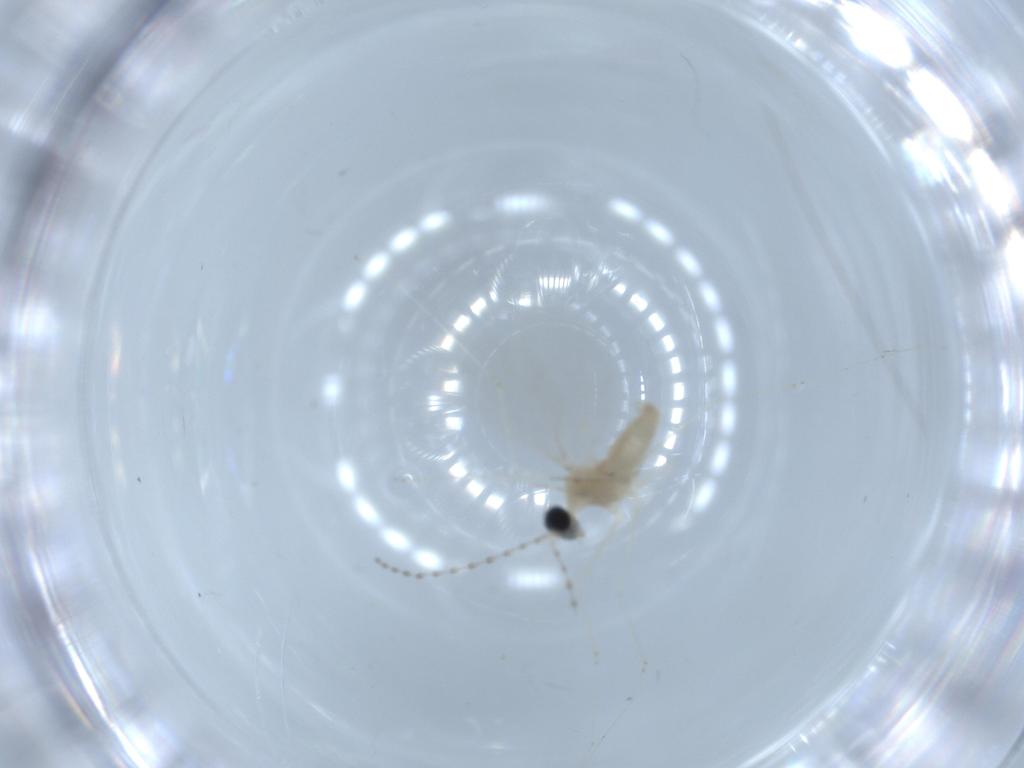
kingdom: Animalia
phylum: Arthropoda
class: Insecta
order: Diptera
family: Cecidomyiidae
